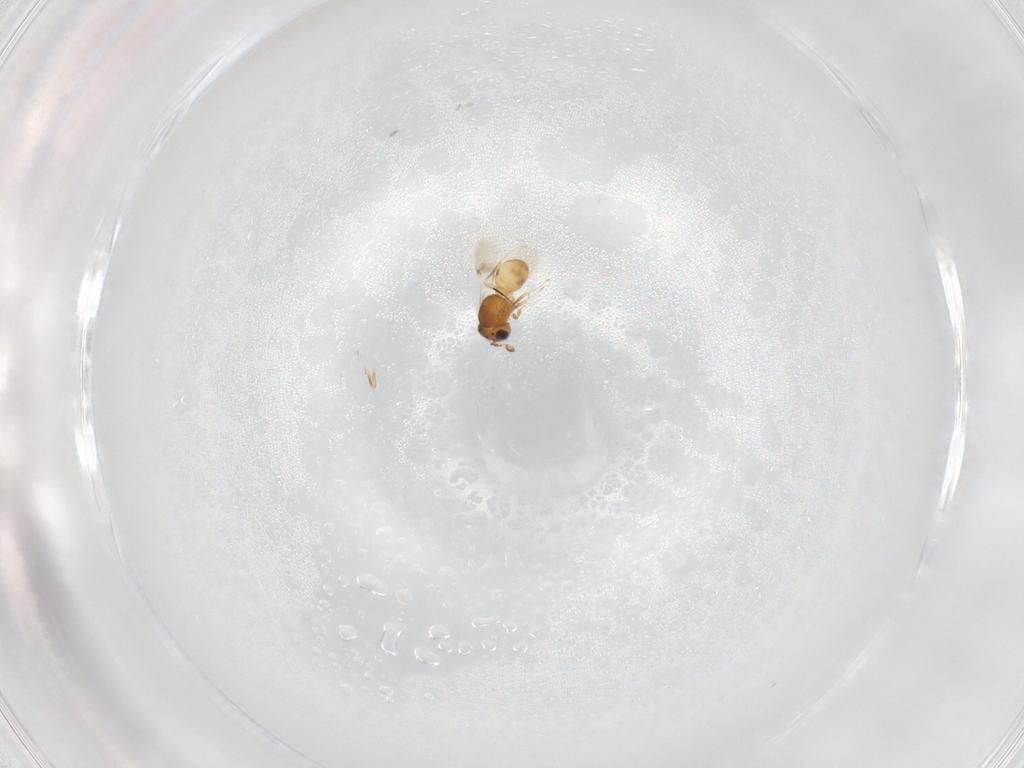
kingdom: Animalia
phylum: Arthropoda
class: Insecta
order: Hymenoptera
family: Scelionidae
